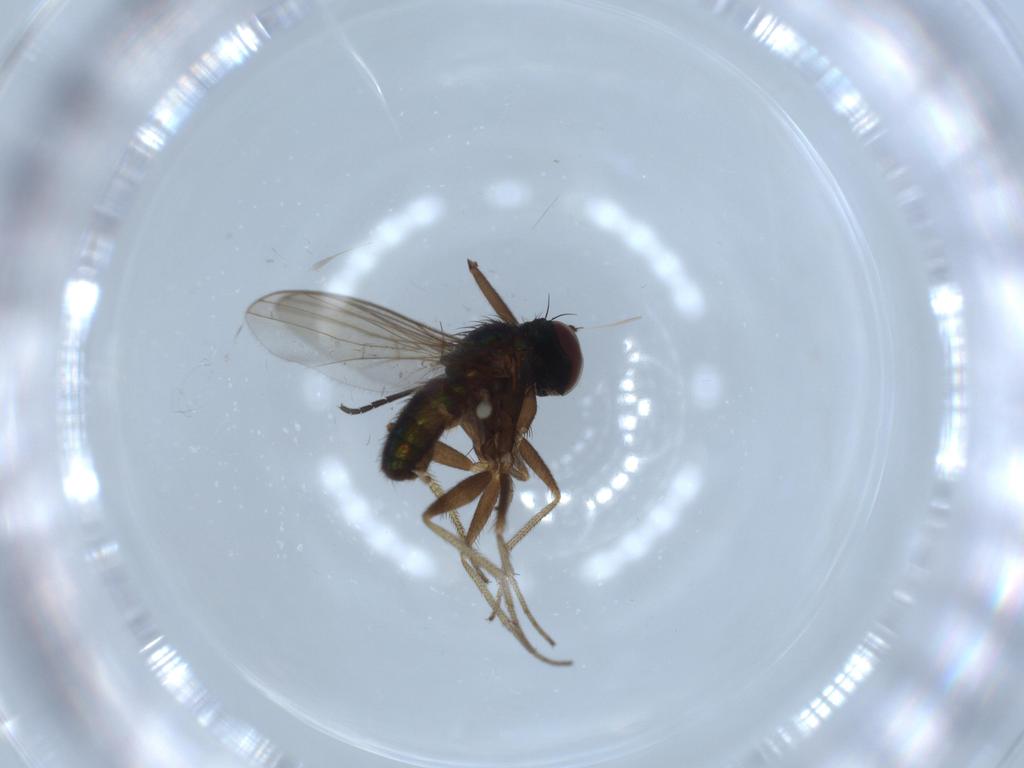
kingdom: Animalia
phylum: Arthropoda
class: Insecta
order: Diptera
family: Sciaridae
